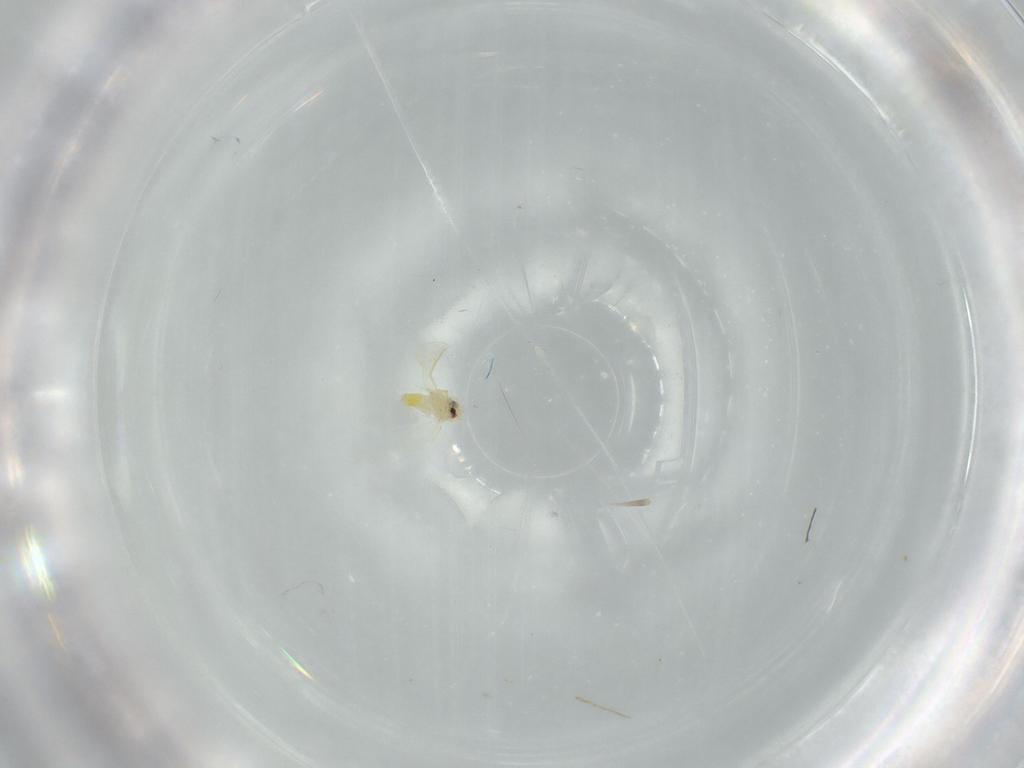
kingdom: Animalia
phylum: Arthropoda
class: Insecta
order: Hemiptera
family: Aleyrodidae
